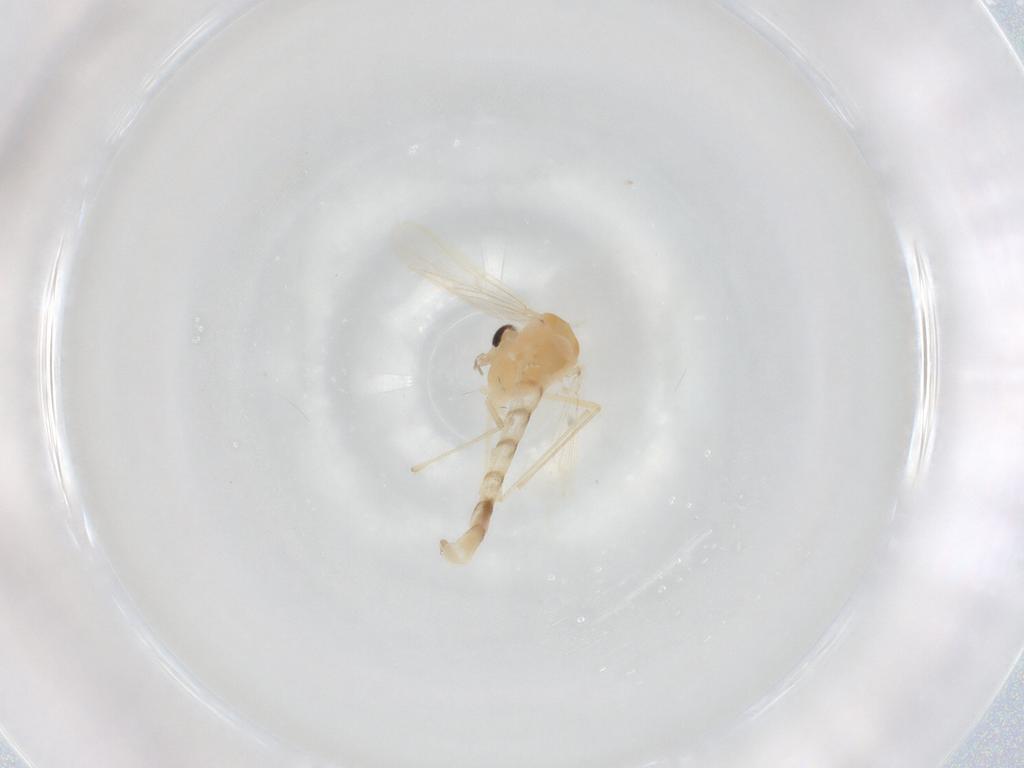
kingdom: Animalia
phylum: Arthropoda
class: Insecta
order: Diptera
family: Chironomidae
